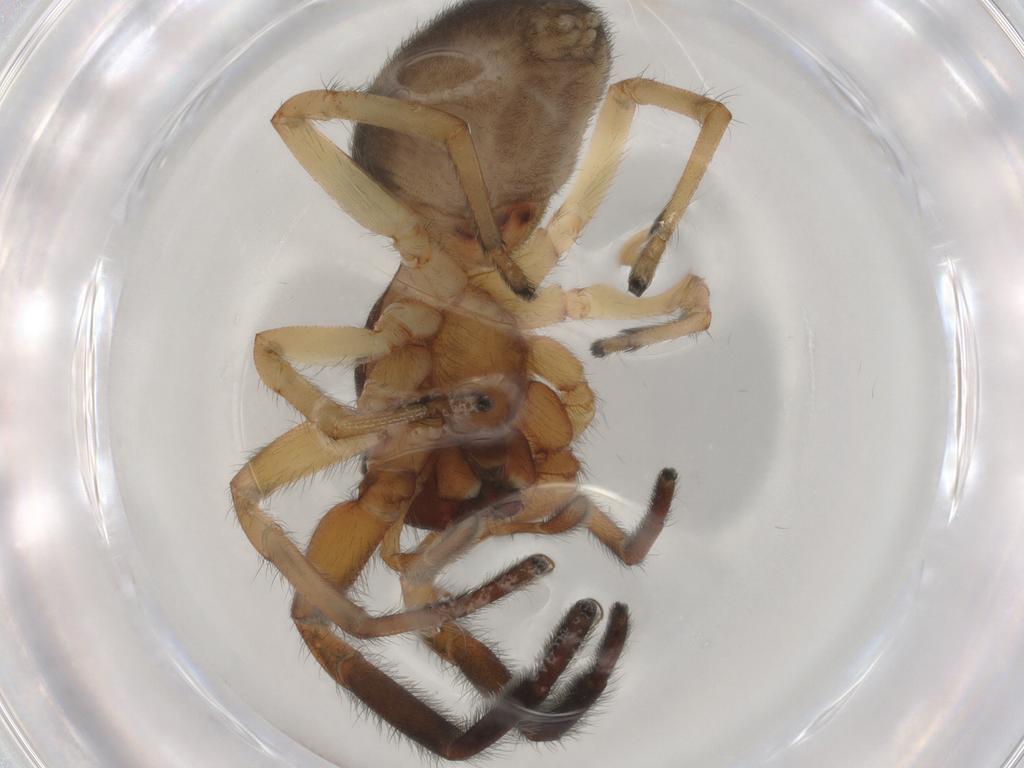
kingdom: Animalia
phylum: Arthropoda
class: Arachnida
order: Araneae
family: Trachelidae
